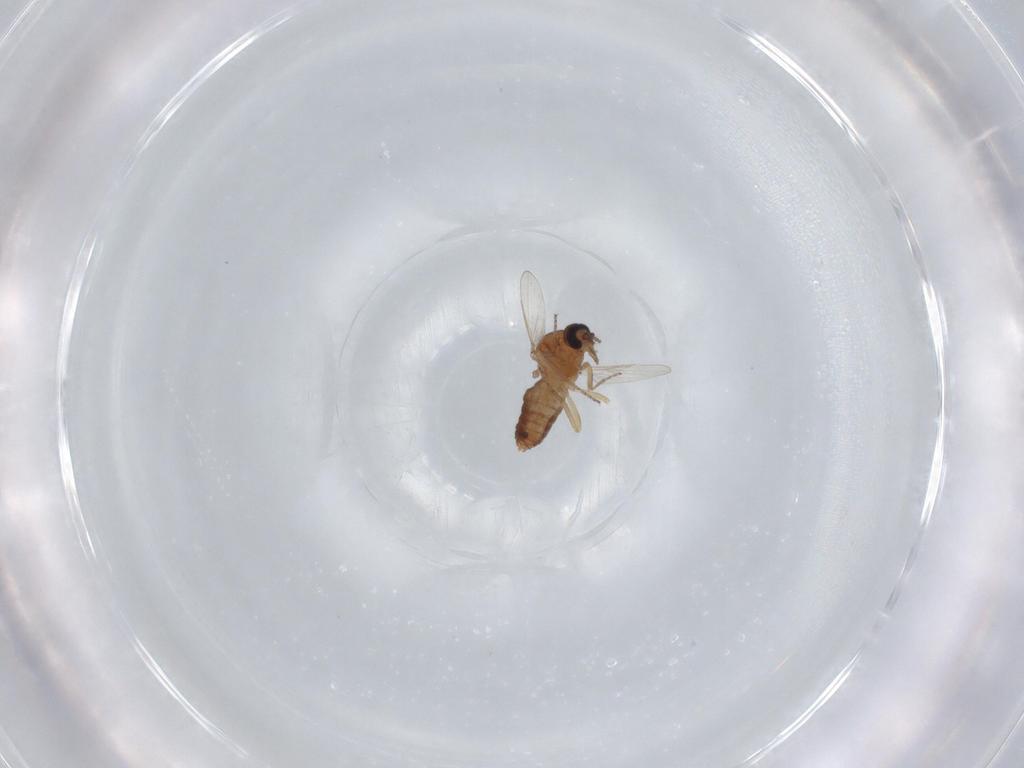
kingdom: Animalia
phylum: Arthropoda
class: Insecta
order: Diptera
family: Ceratopogonidae
